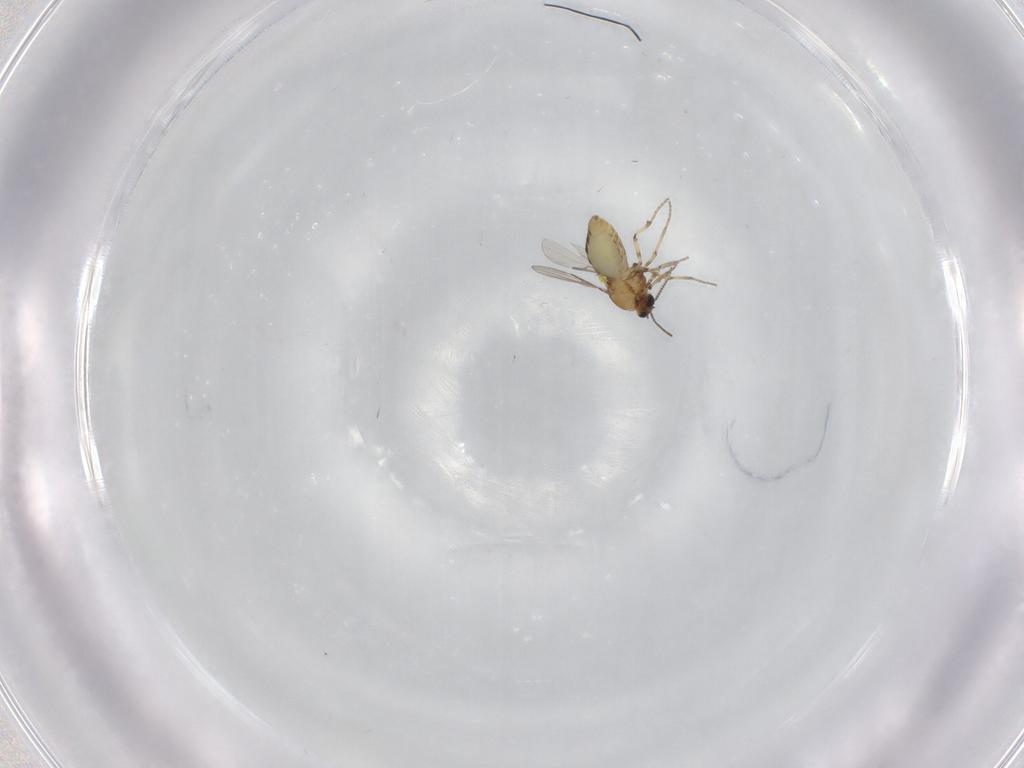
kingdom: Animalia
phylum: Arthropoda
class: Insecta
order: Diptera
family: Ceratopogonidae
